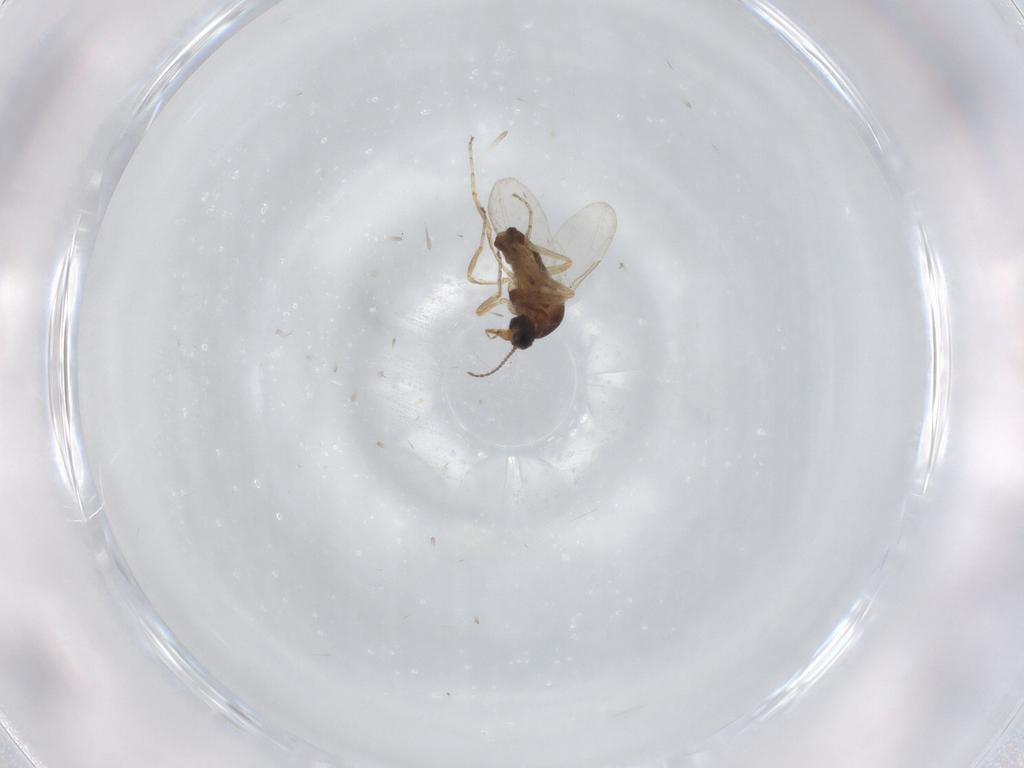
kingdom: Animalia
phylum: Arthropoda
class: Insecta
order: Diptera
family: Ceratopogonidae
